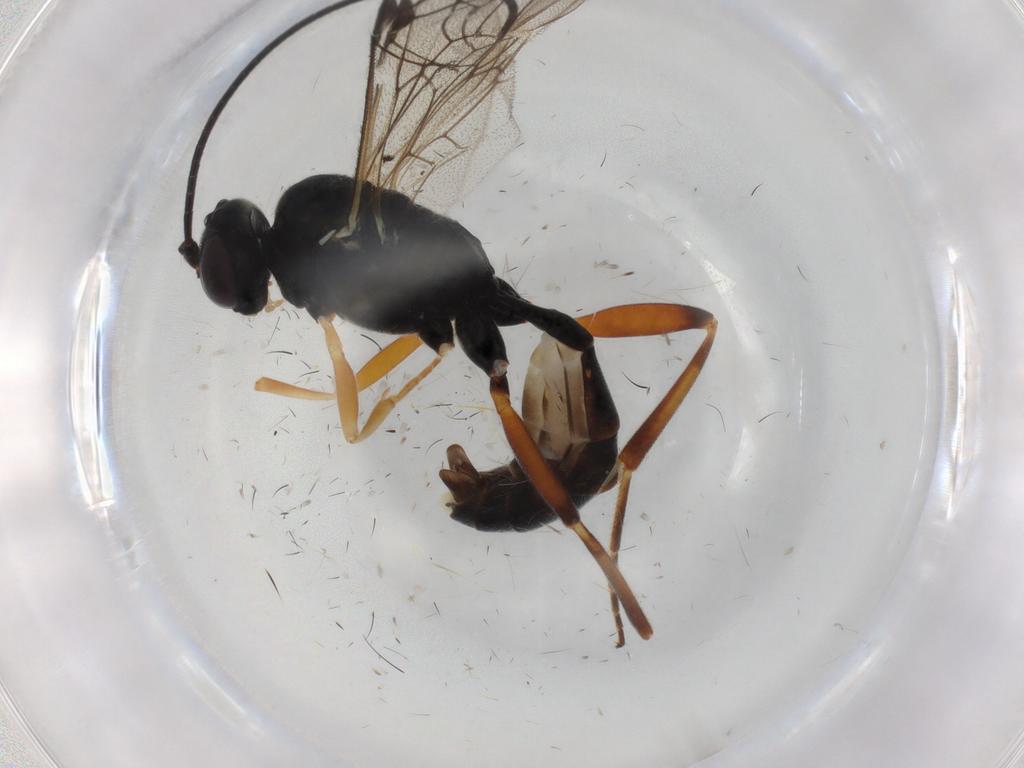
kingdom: Animalia
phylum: Arthropoda
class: Insecta
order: Hymenoptera
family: Ichneumonidae
